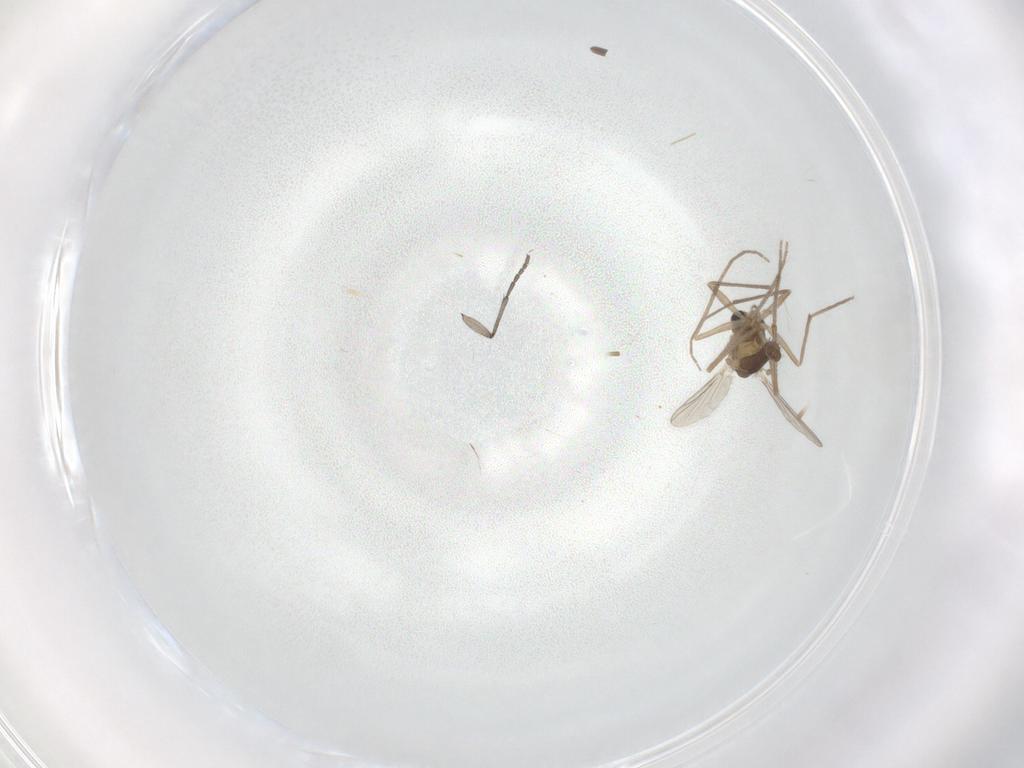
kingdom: Animalia
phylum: Arthropoda
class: Insecta
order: Diptera
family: Chironomidae
